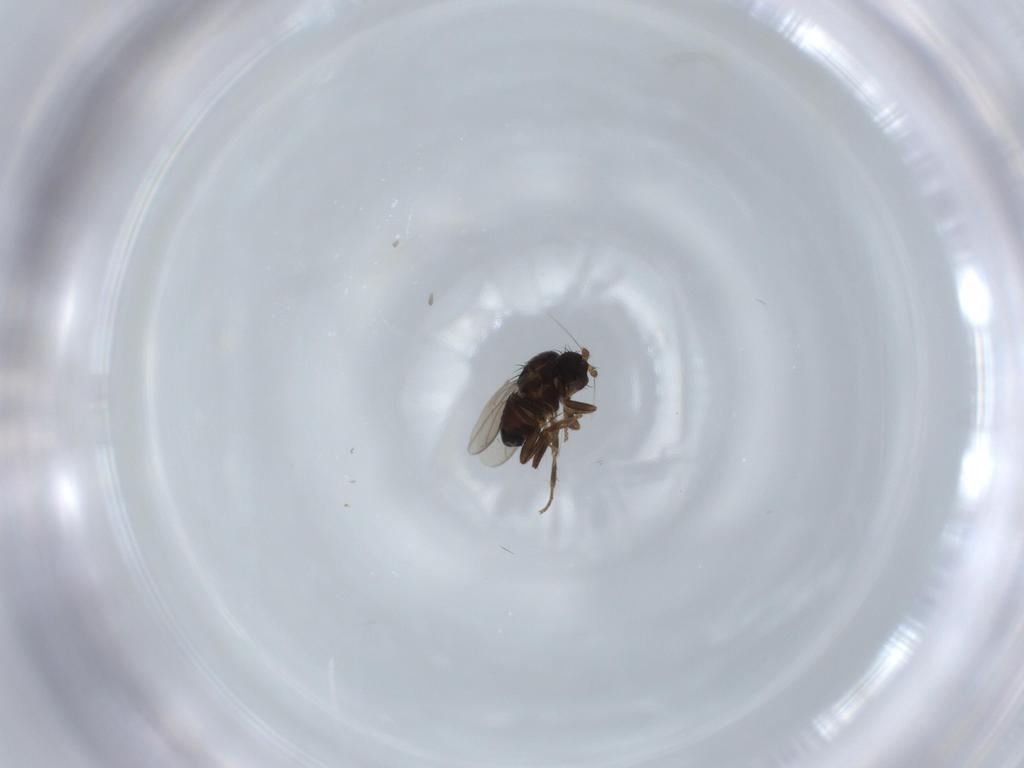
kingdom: Animalia
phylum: Arthropoda
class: Insecta
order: Diptera
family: Sphaeroceridae
